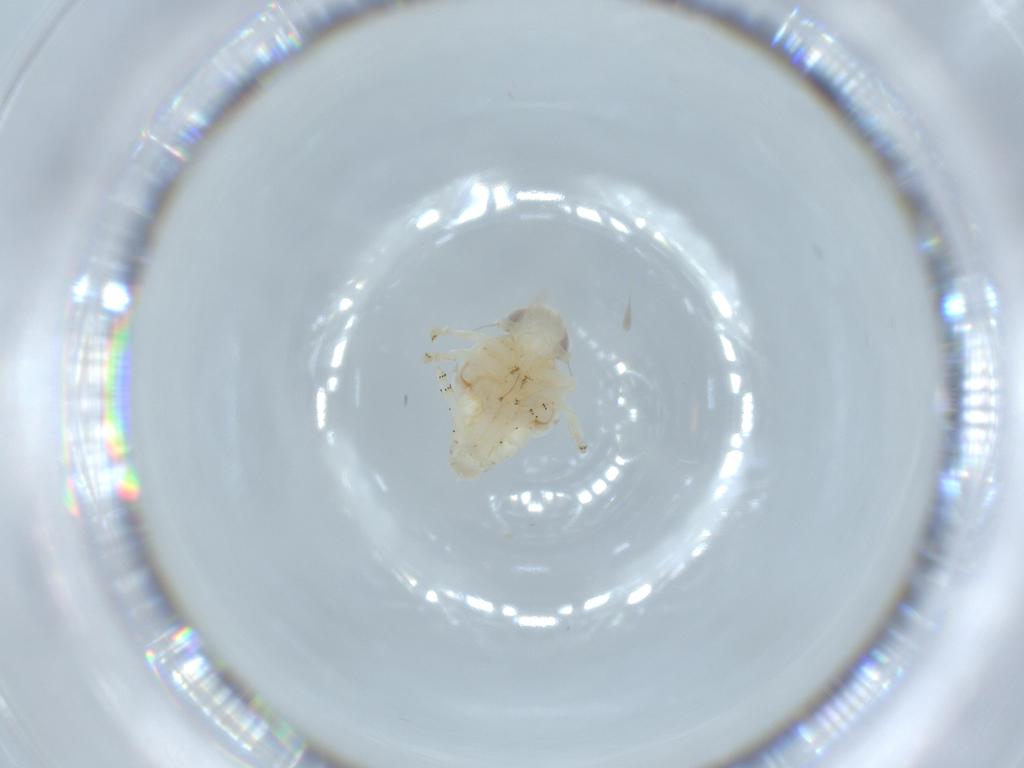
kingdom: Animalia
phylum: Arthropoda
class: Insecta
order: Hemiptera
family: Nogodinidae
